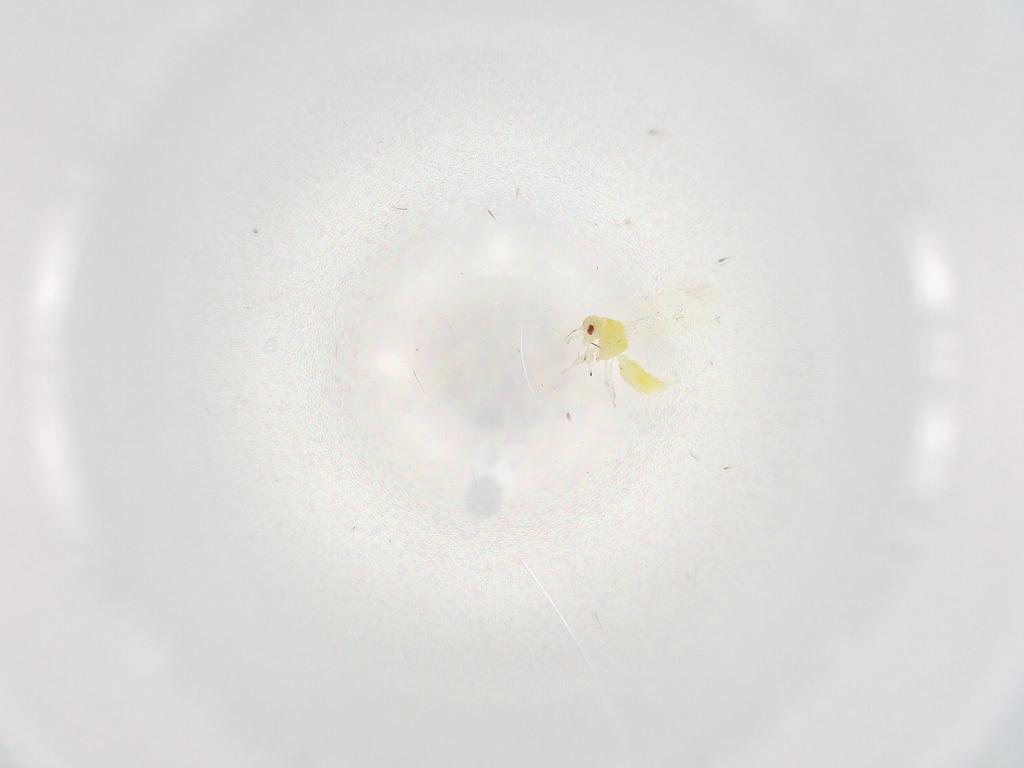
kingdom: Animalia
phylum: Arthropoda
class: Insecta
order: Hemiptera
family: Aleyrodidae
